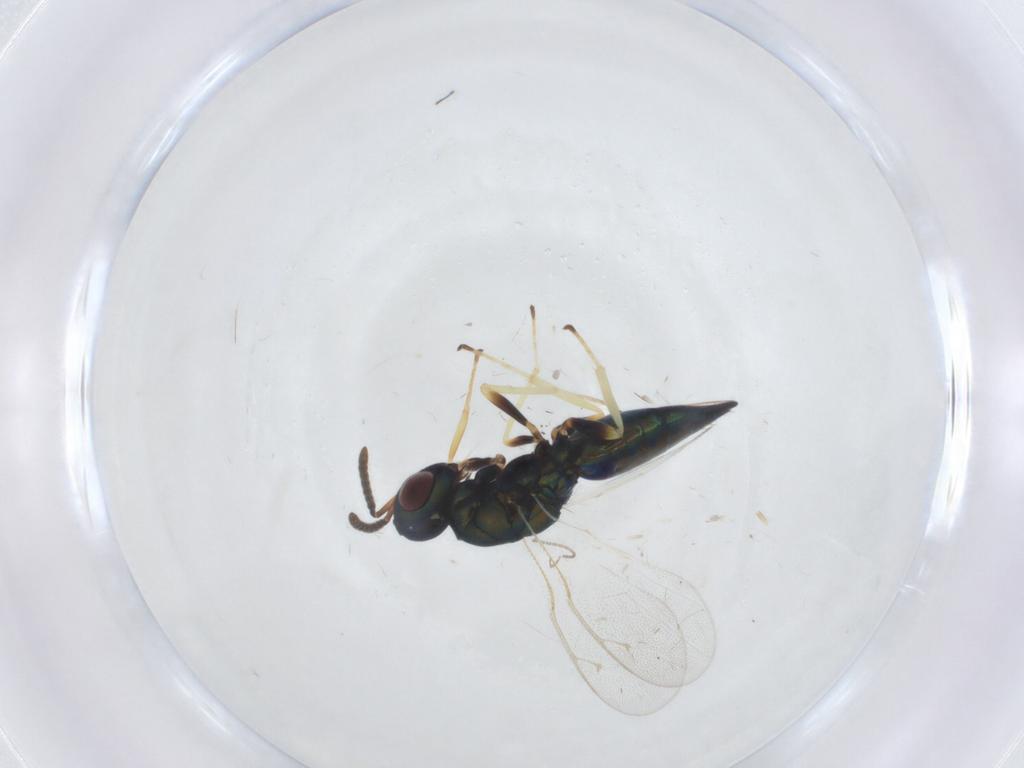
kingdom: Animalia
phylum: Arthropoda
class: Insecta
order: Hymenoptera
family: Pteromalidae
